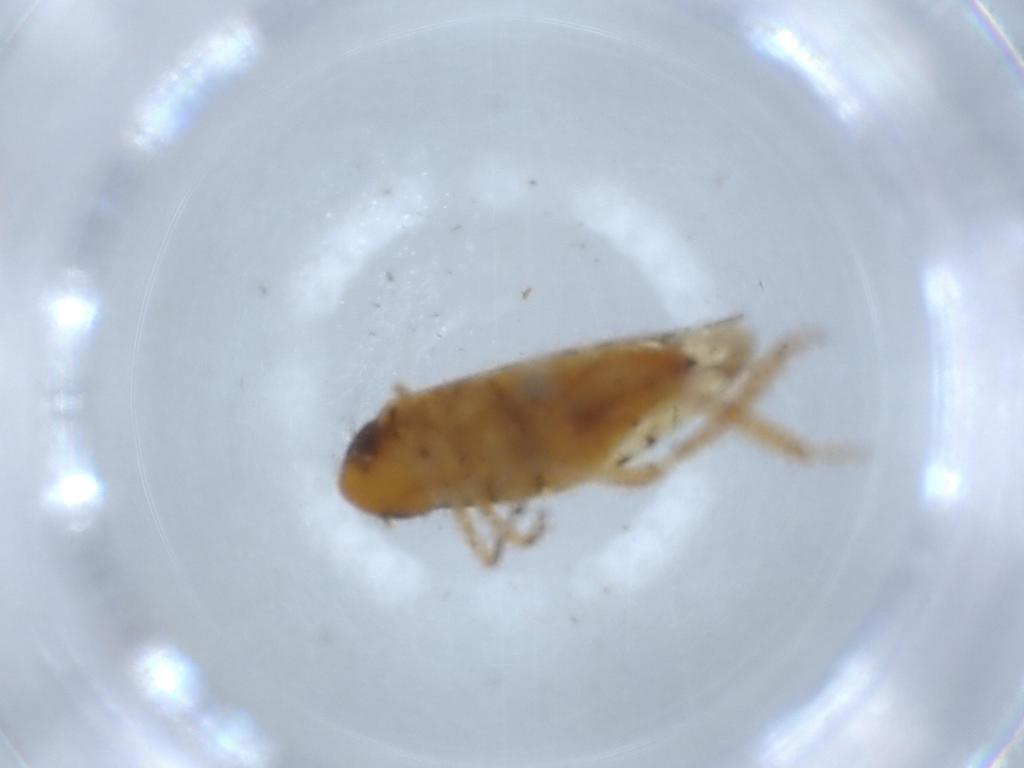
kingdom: Animalia
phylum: Arthropoda
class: Insecta
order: Hemiptera
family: Cicadellidae
